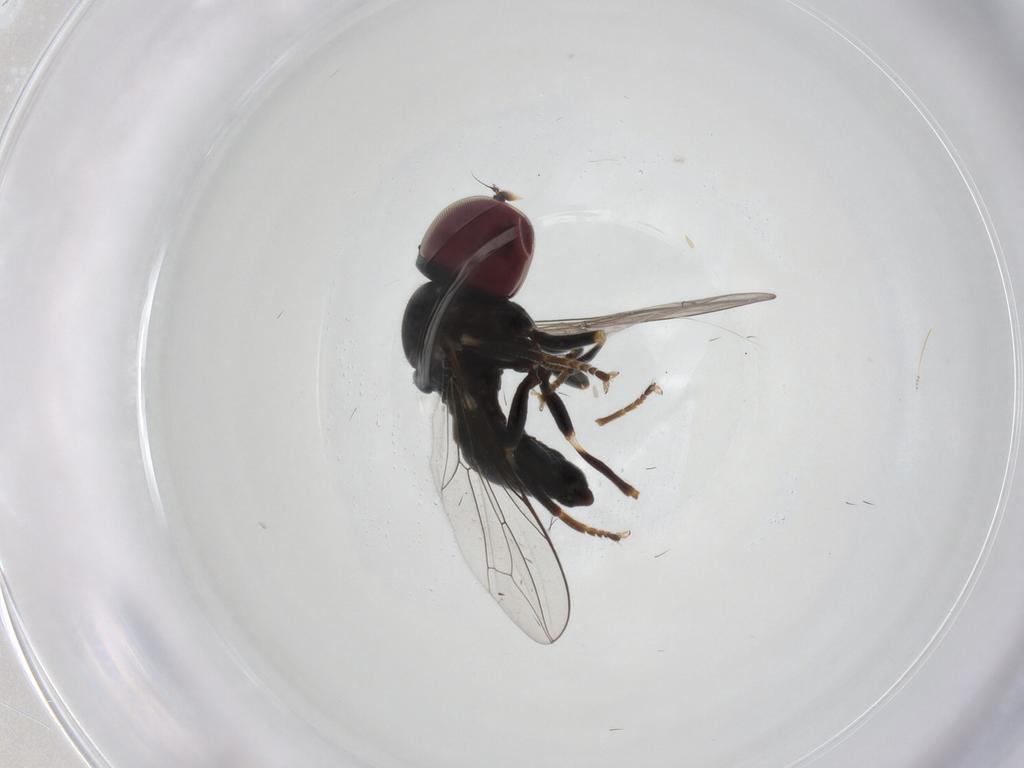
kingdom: Animalia
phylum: Arthropoda
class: Insecta
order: Diptera
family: Pipunculidae
